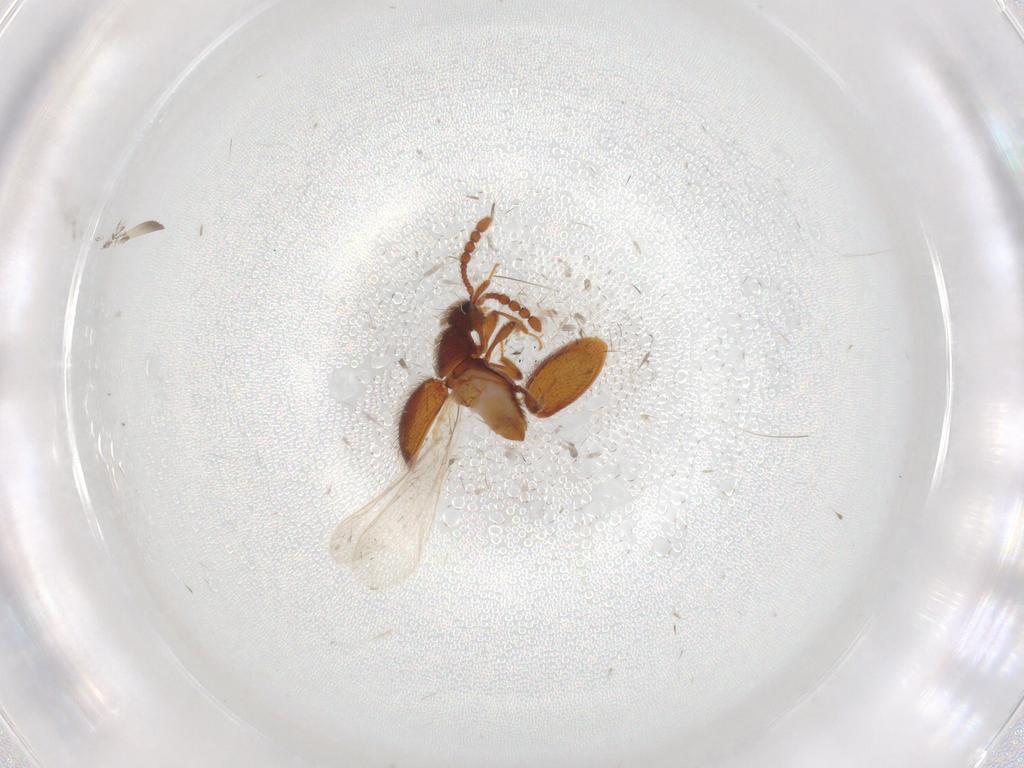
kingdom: Animalia
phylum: Arthropoda
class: Insecta
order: Coleoptera
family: Staphylinidae
